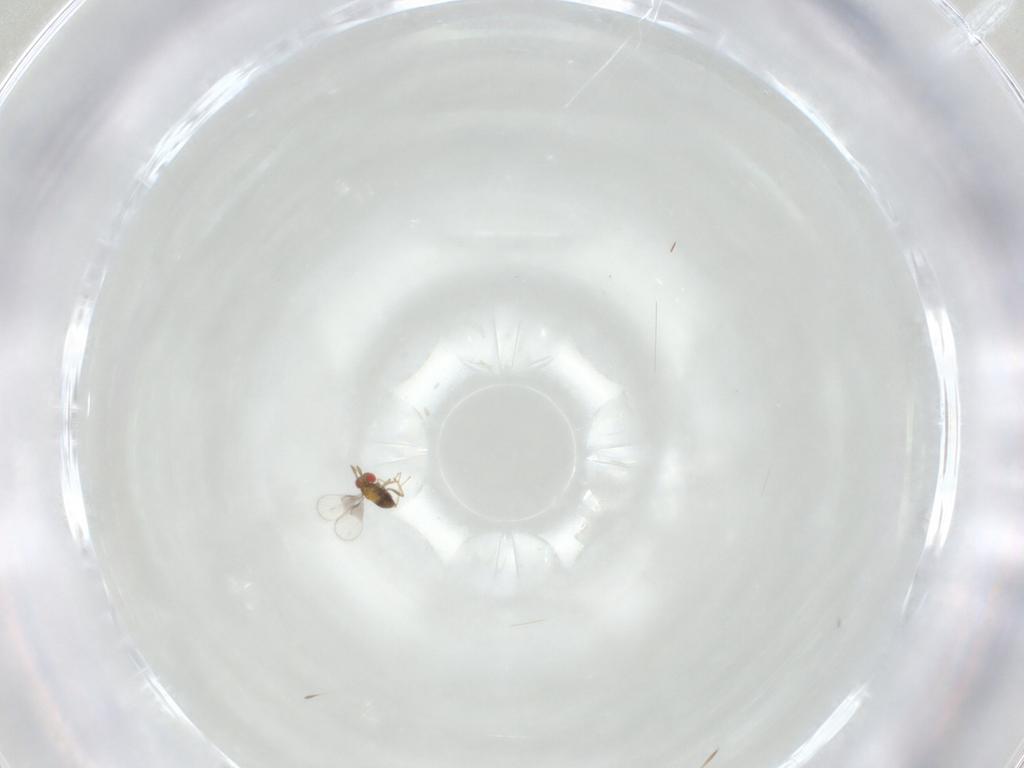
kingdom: Animalia
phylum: Arthropoda
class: Insecta
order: Hymenoptera
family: Trichogrammatidae
